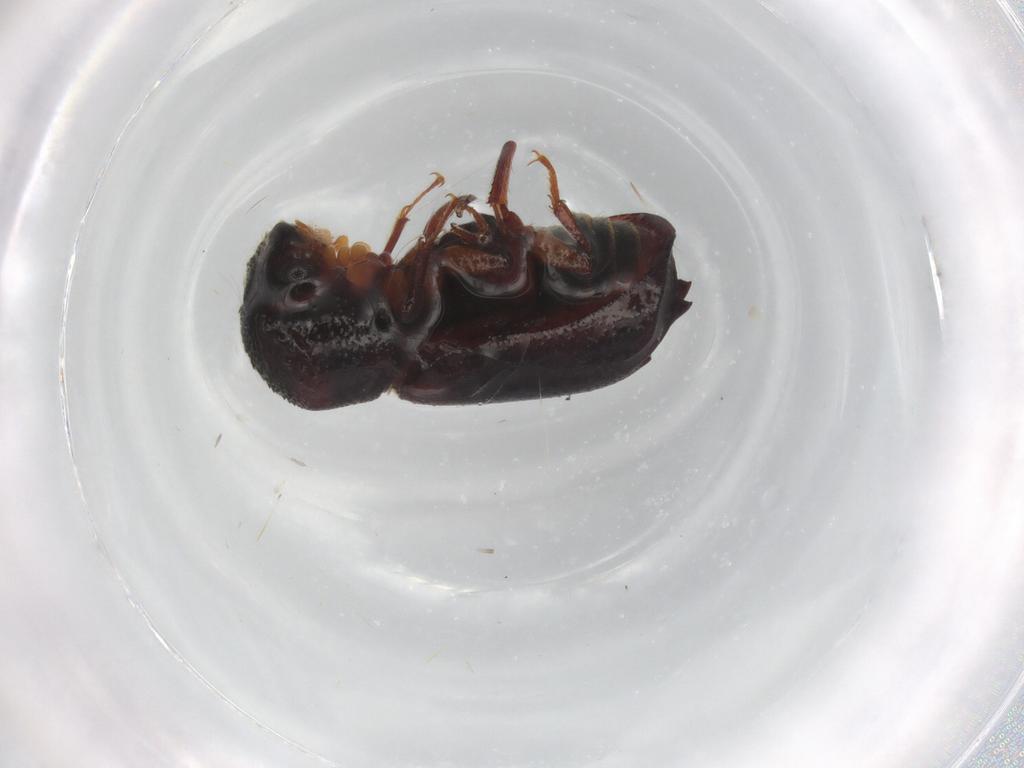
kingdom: Animalia
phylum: Arthropoda
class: Insecta
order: Coleoptera
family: Bostrichidae
